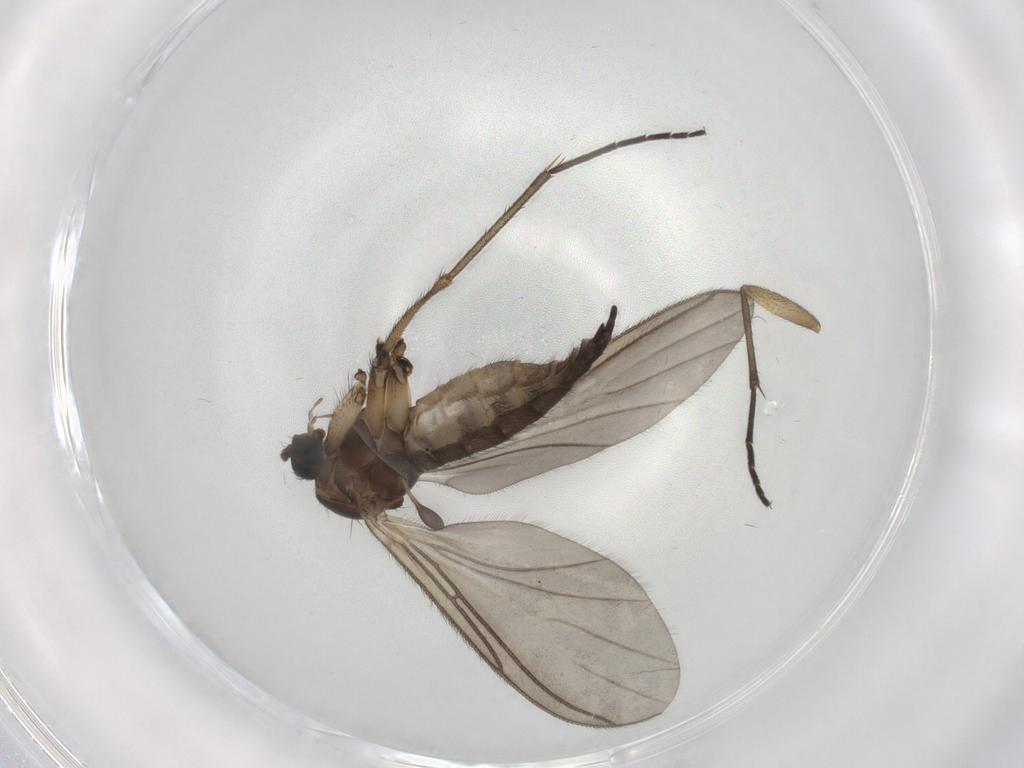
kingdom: Animalia
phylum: Arthropoda
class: Insecta
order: Diptera
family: Sciaridae
